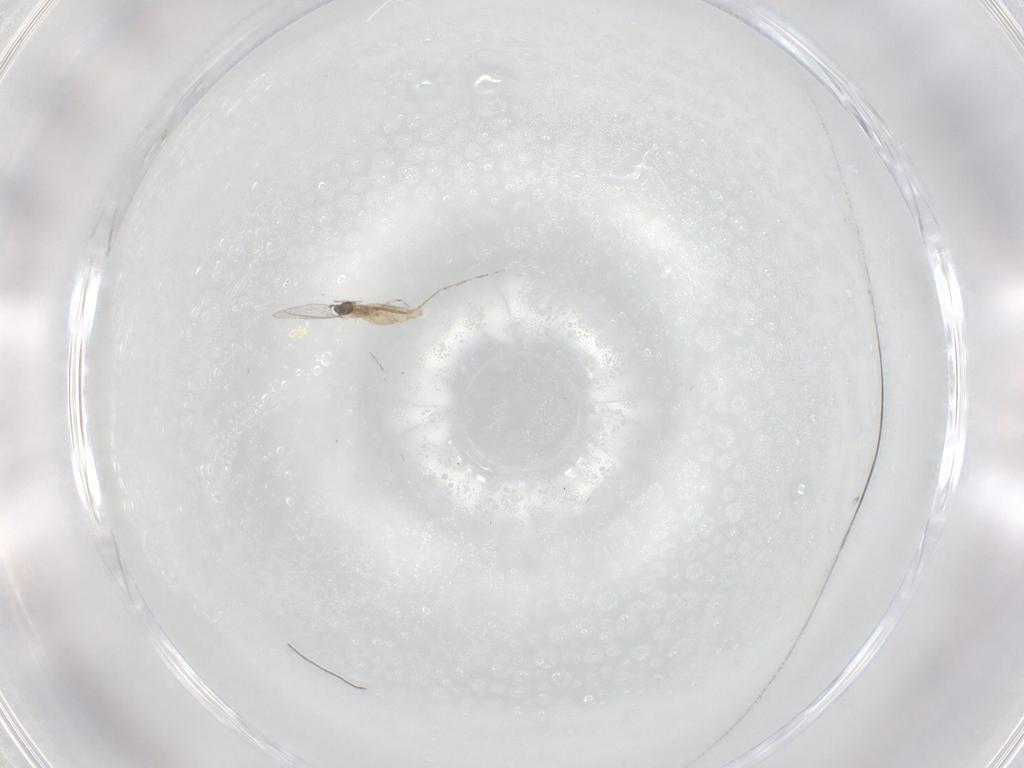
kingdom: Animalia
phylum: Arthropoda
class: Insecta
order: Diptera
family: Cecidomyiidae
